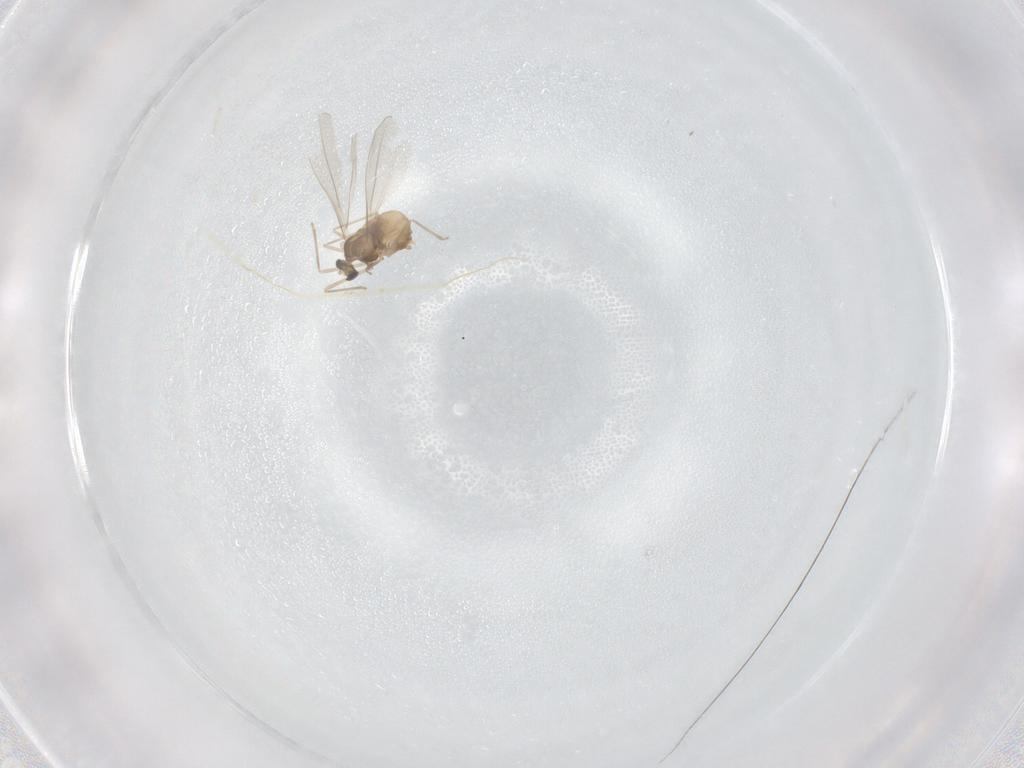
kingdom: Animalia
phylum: Arthropoda
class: Insecta
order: Diptera
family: Cecidomyiidae
